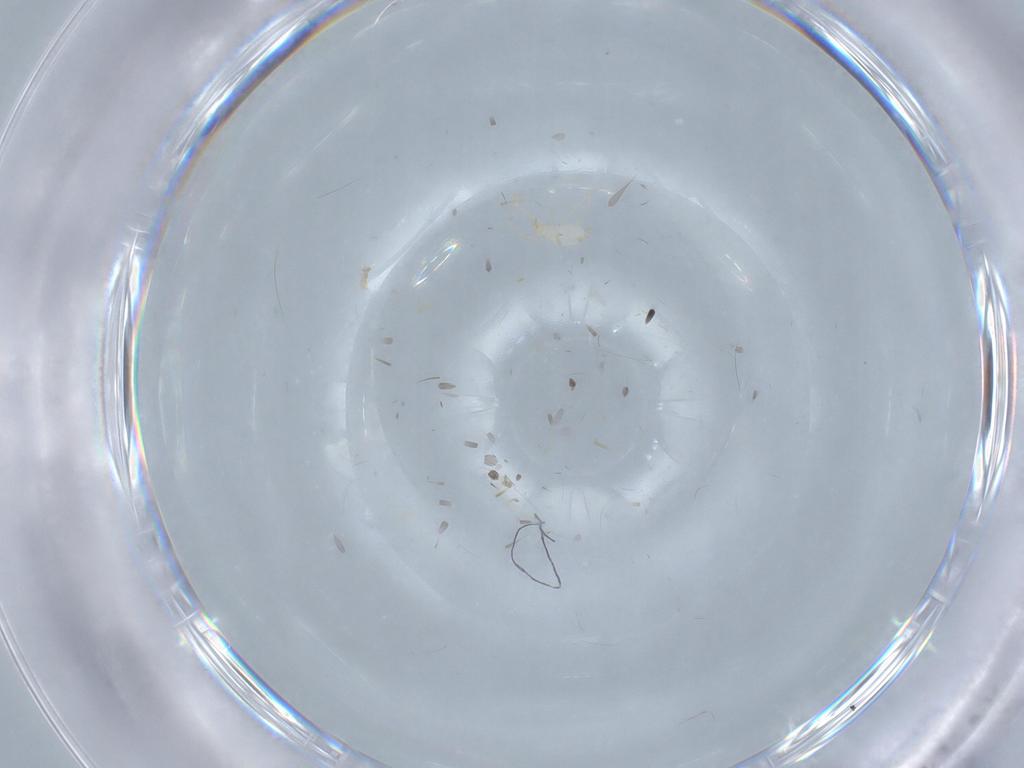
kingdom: Animalia
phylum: Arthropoda
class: Arachnida
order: Trombidiformes
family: Erythraeidae
